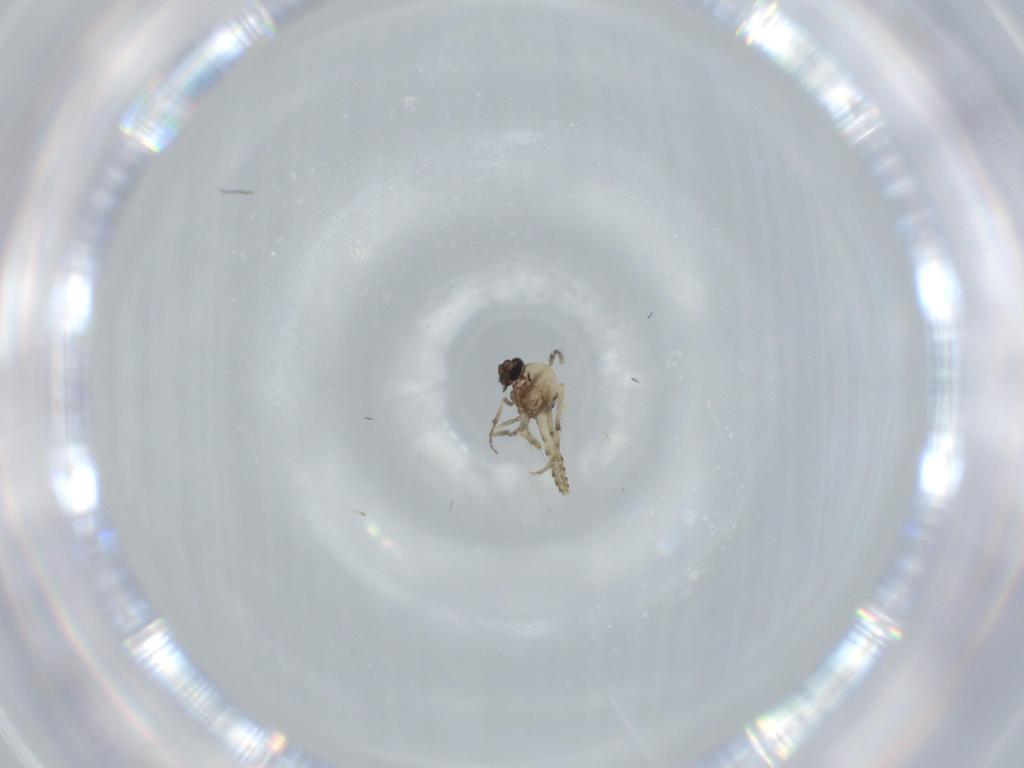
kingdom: Animalia
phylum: Arthropoda
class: Insecta
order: Diptera
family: Ceratopogonidae
